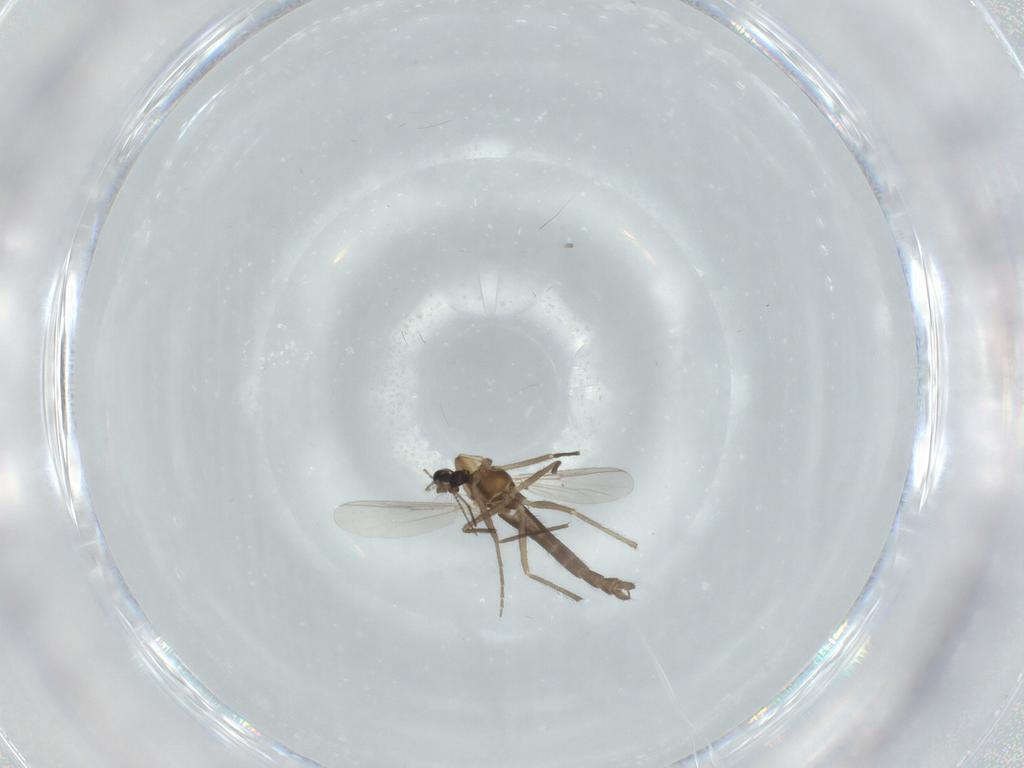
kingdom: Animalia
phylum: Arthropoda
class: Insecta
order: Diptera
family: Chironomidae
